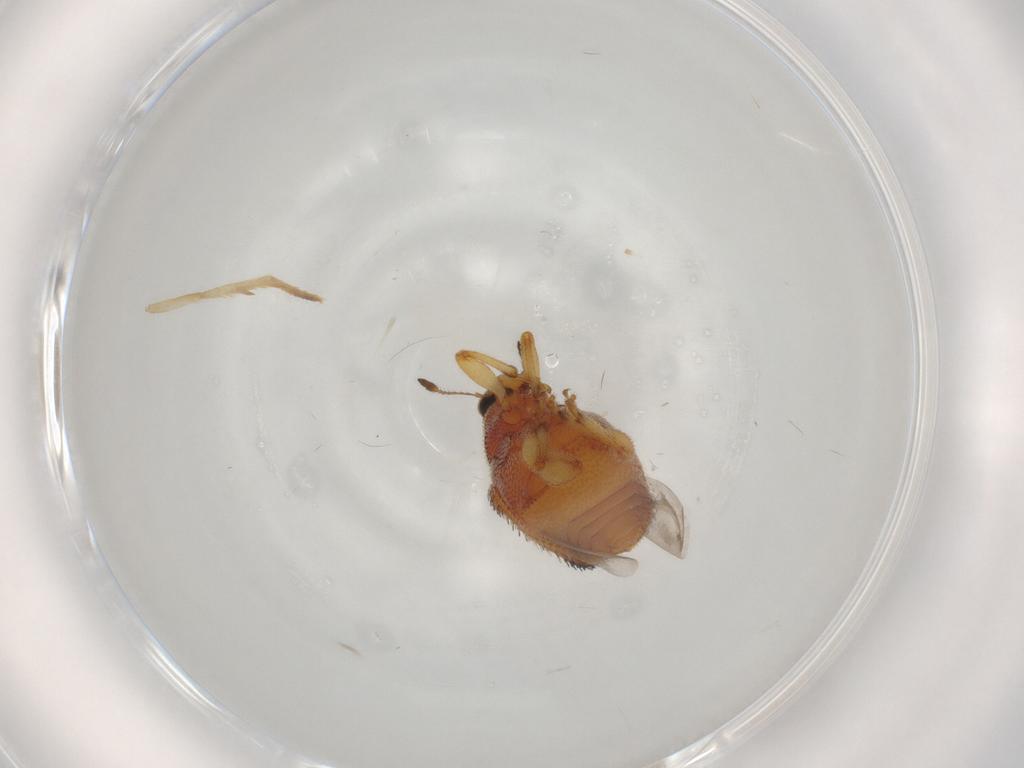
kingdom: Animalia
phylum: Arthropoda
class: Insecta
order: Coleoptera
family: Curculionidae
